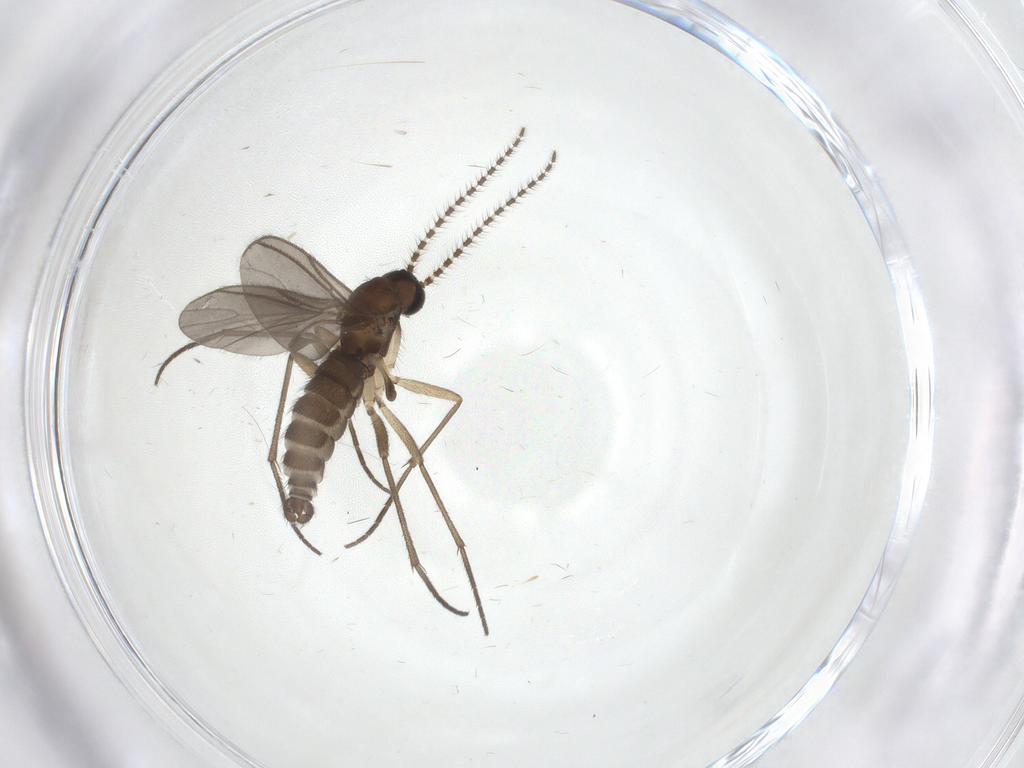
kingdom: Animalia
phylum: Arthropoda
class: Insecta
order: Diptera
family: Sciaridae
